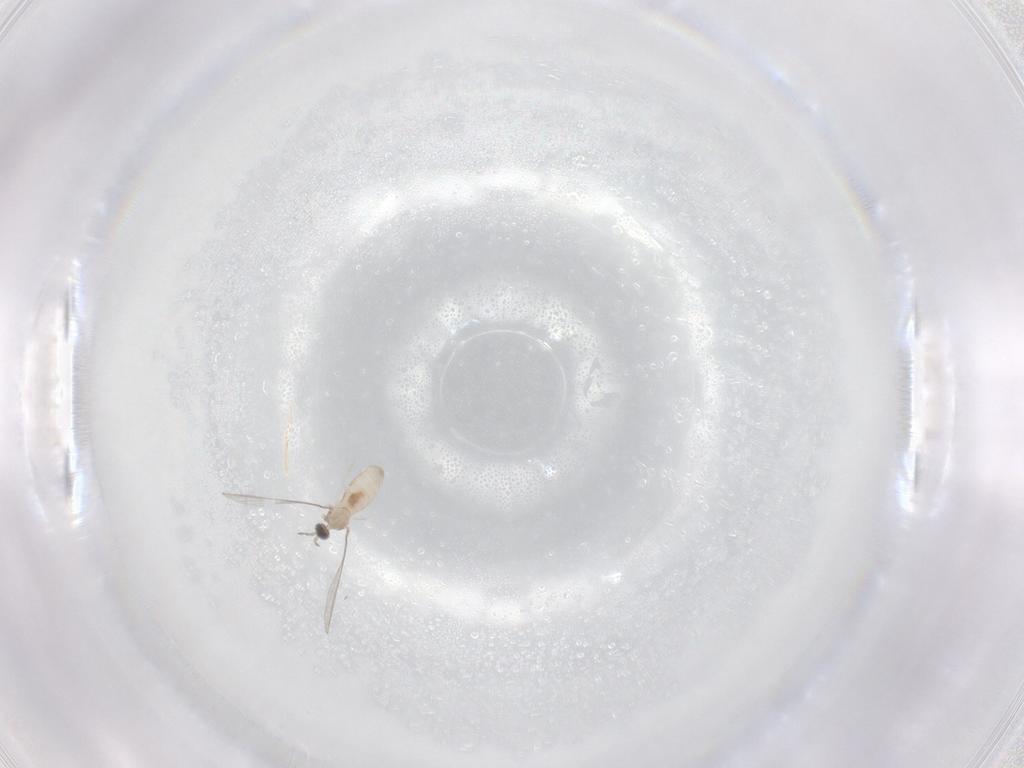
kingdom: Animalia
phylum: Arthropoda
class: Insecta
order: Diptera
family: Cecidomyiidae
